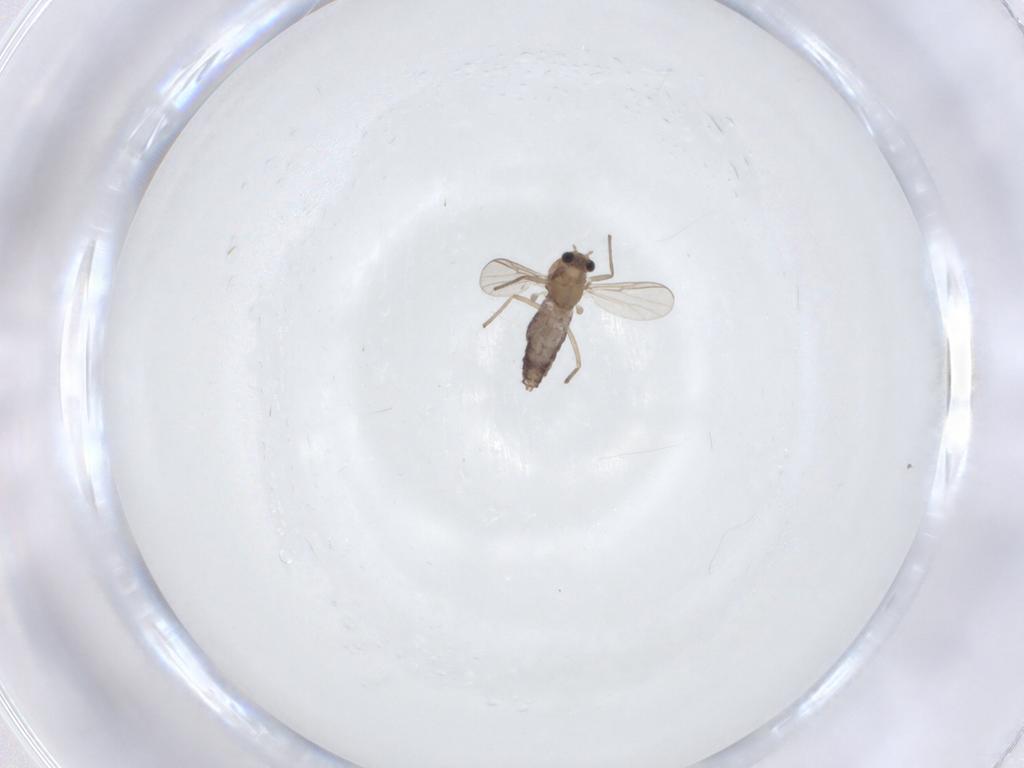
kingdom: Animalia
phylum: Arthropoda
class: Insecta
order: Diptera
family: Chironomidae
